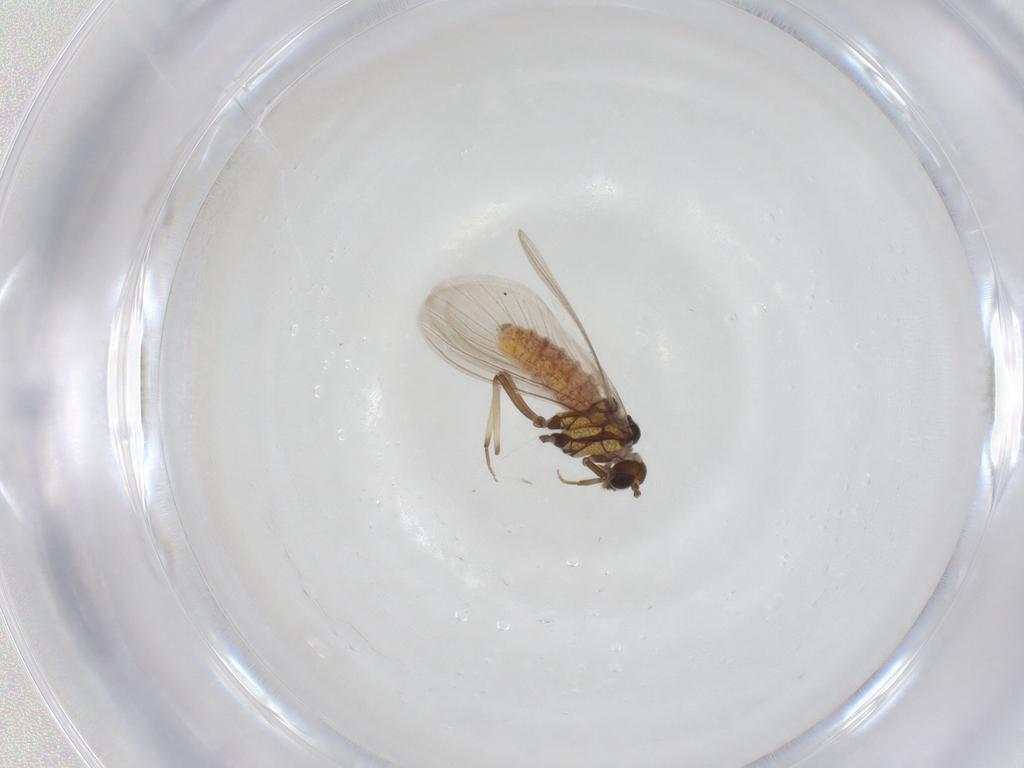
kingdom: Animalia
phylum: Arthropoda
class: Insecta
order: Neuroptera
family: Coniopterygidae
